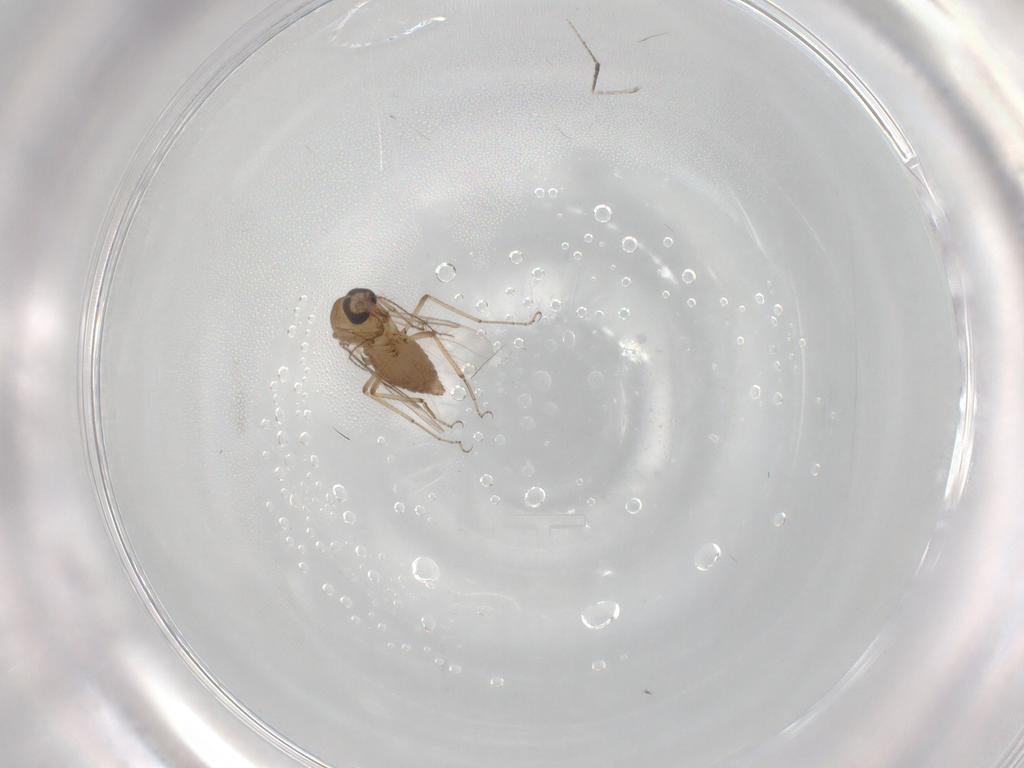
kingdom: Animalia
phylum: Arthropoda
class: Insecta
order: Diptera
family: Cecidomyiidae
